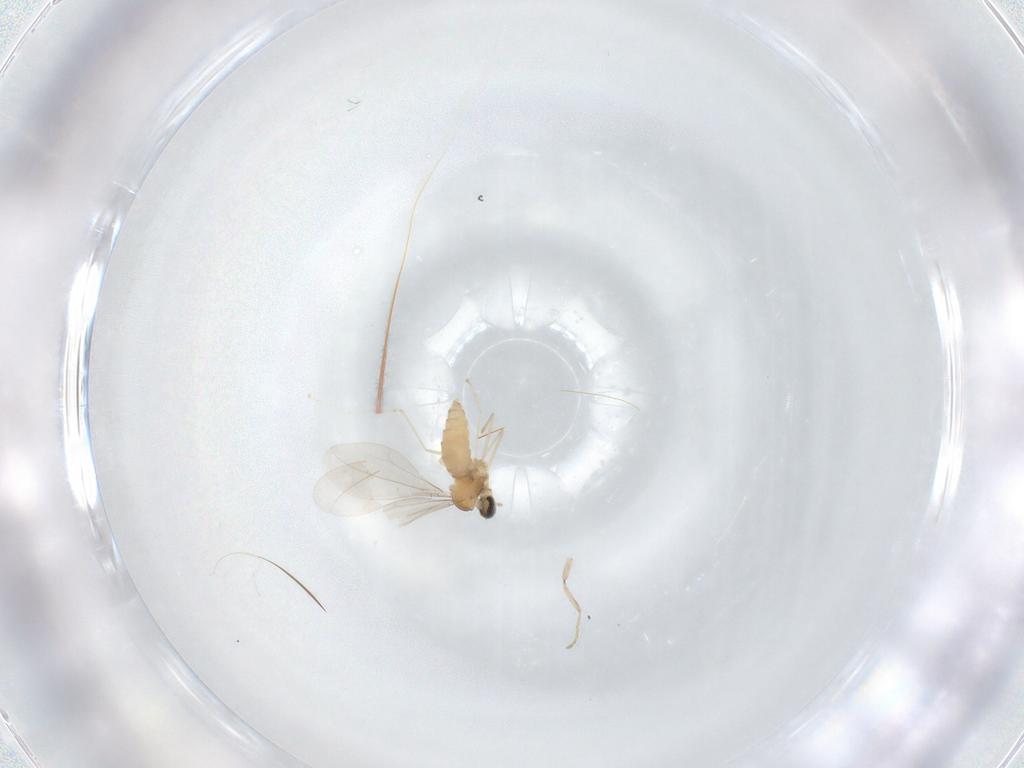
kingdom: Animalia
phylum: Arthropoda
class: Insecta
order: Diptera
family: Cecidomyiidae
